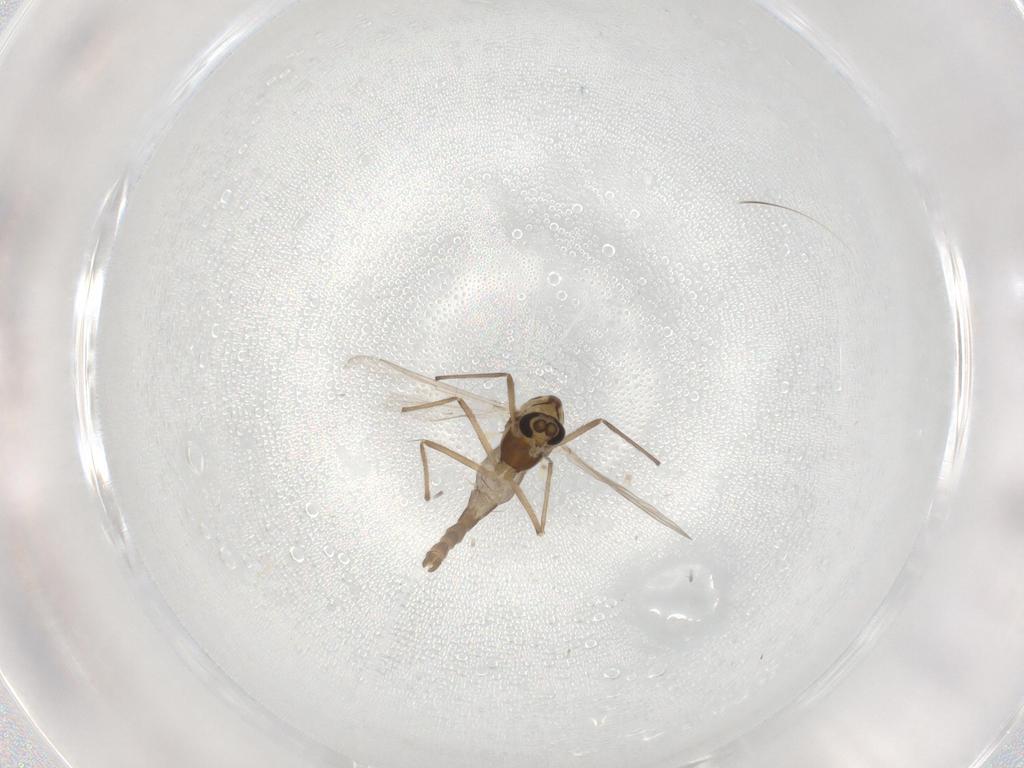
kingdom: Animalia
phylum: Arthropoda
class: Insecta
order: Diptera
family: Chironomidae
